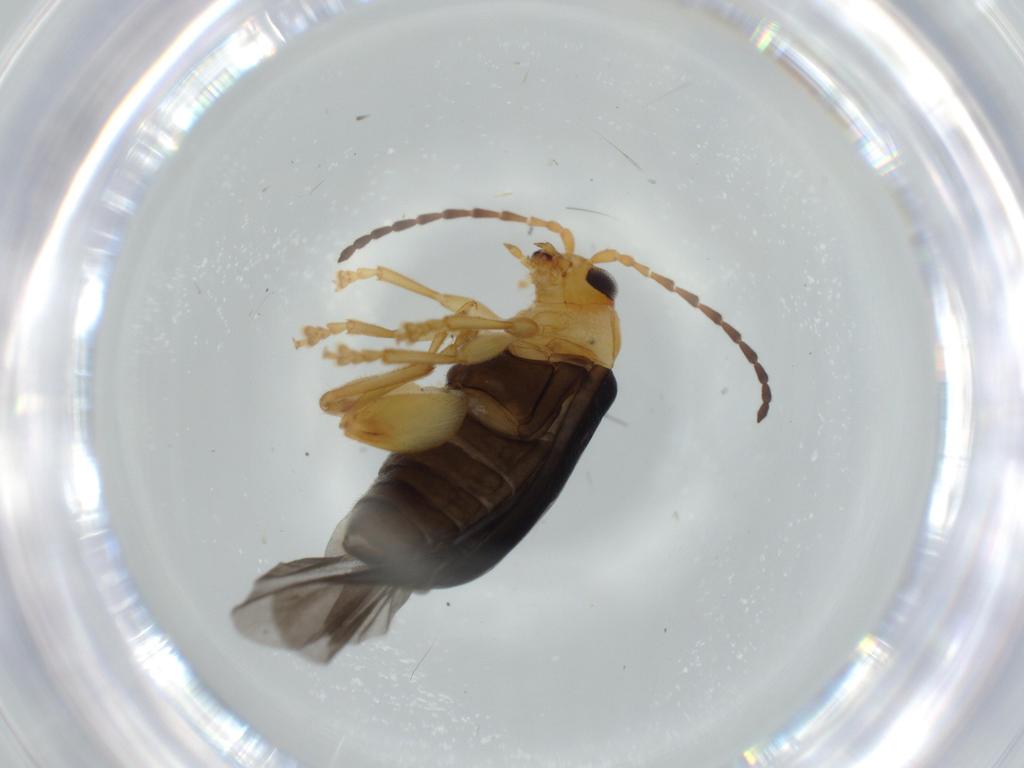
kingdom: Animalia
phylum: Arthropoda
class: Insecta
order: Coleoptera
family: Chrysomelidae
